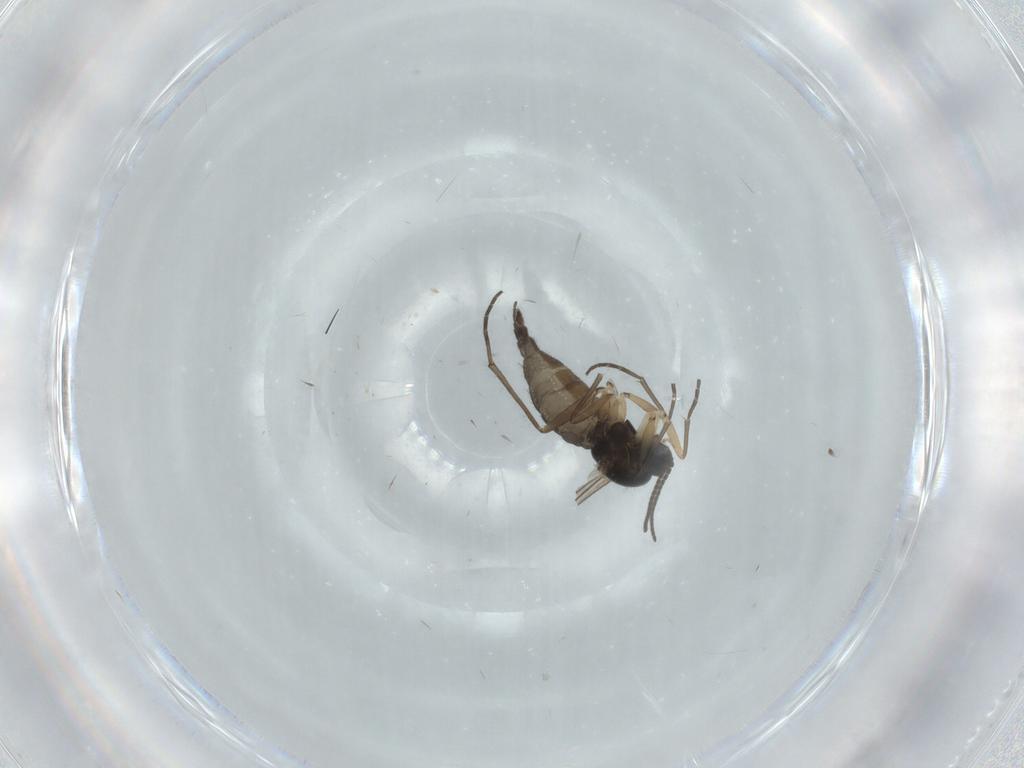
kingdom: Animalia
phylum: Arthropoda
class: Insecta
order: Diptera
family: Sciaridae
